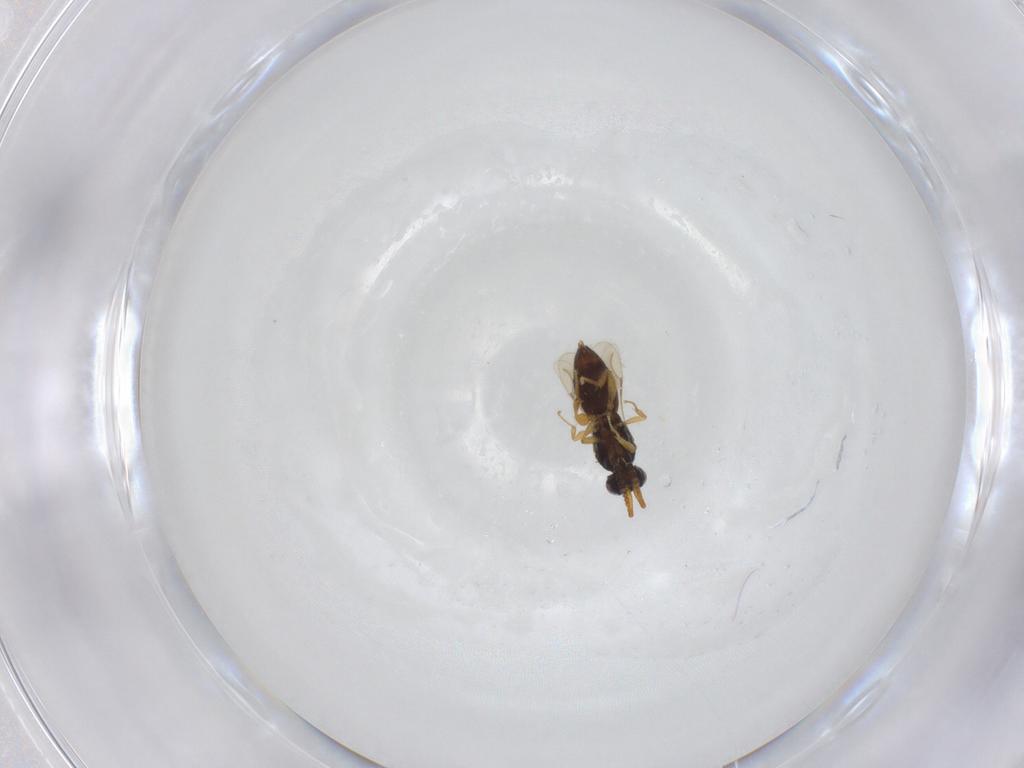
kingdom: Animalia
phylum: Arthropoda
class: Insecta
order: Hymenoptera
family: Ceraphronidae
